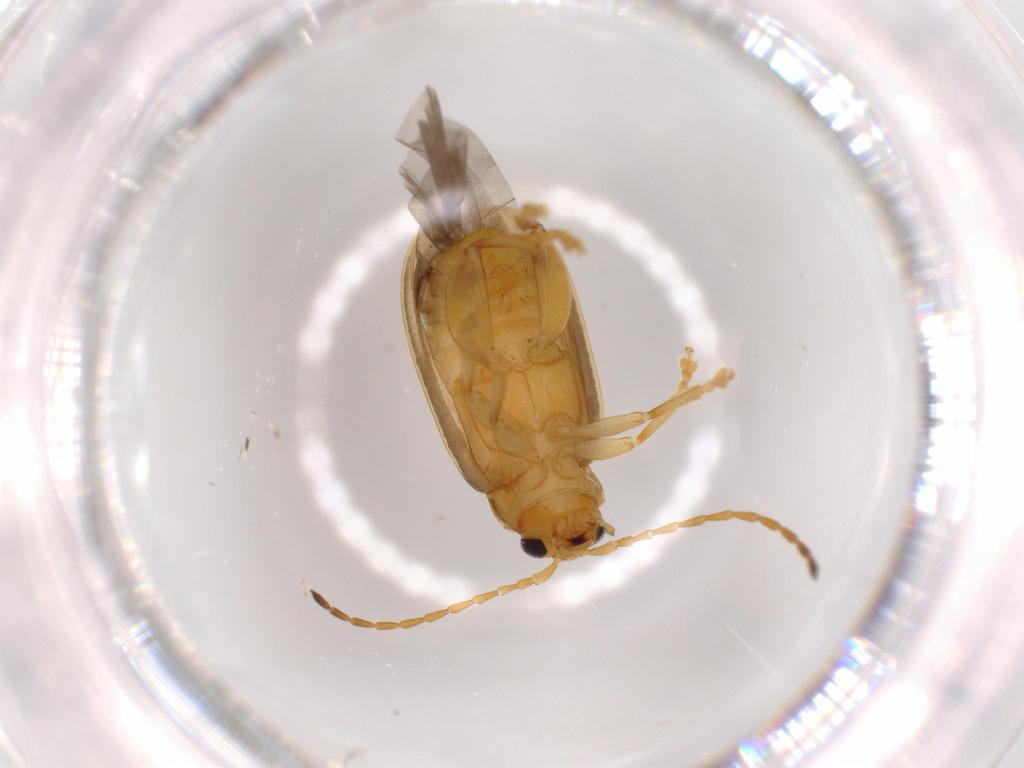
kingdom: Animalia
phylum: Arthropoda
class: Insecta
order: Coleoptera
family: Chrysomelidae
